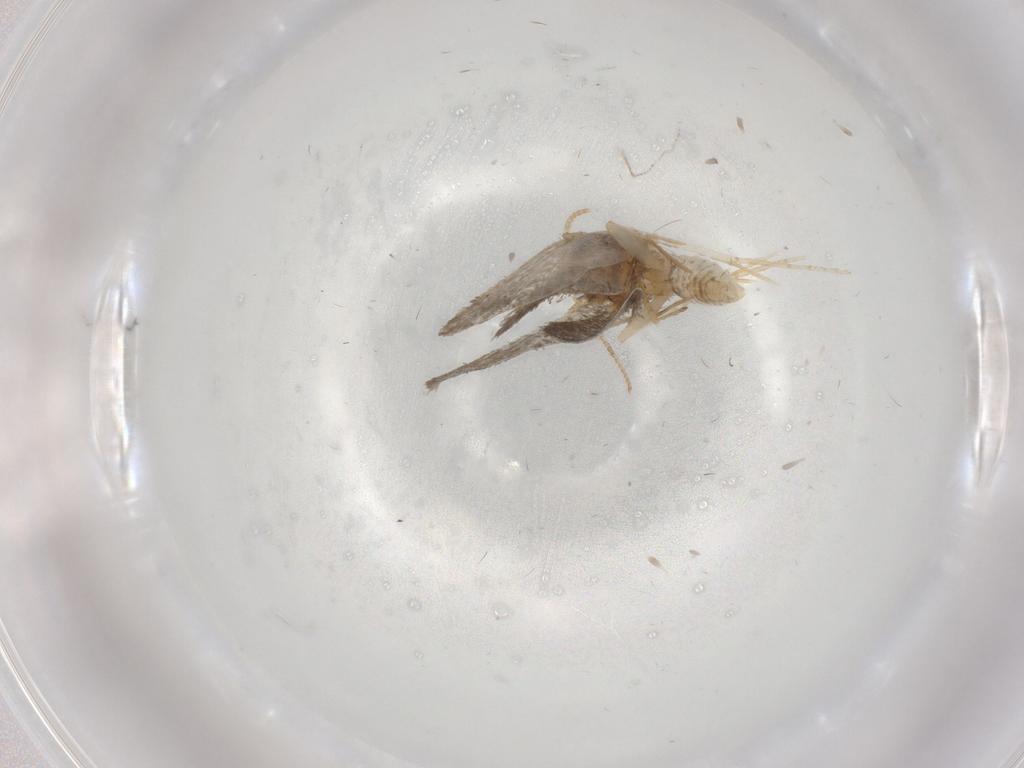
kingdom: Animalia
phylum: Arthropoda
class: Insecta
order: Lepidoptera
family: Psychidae
